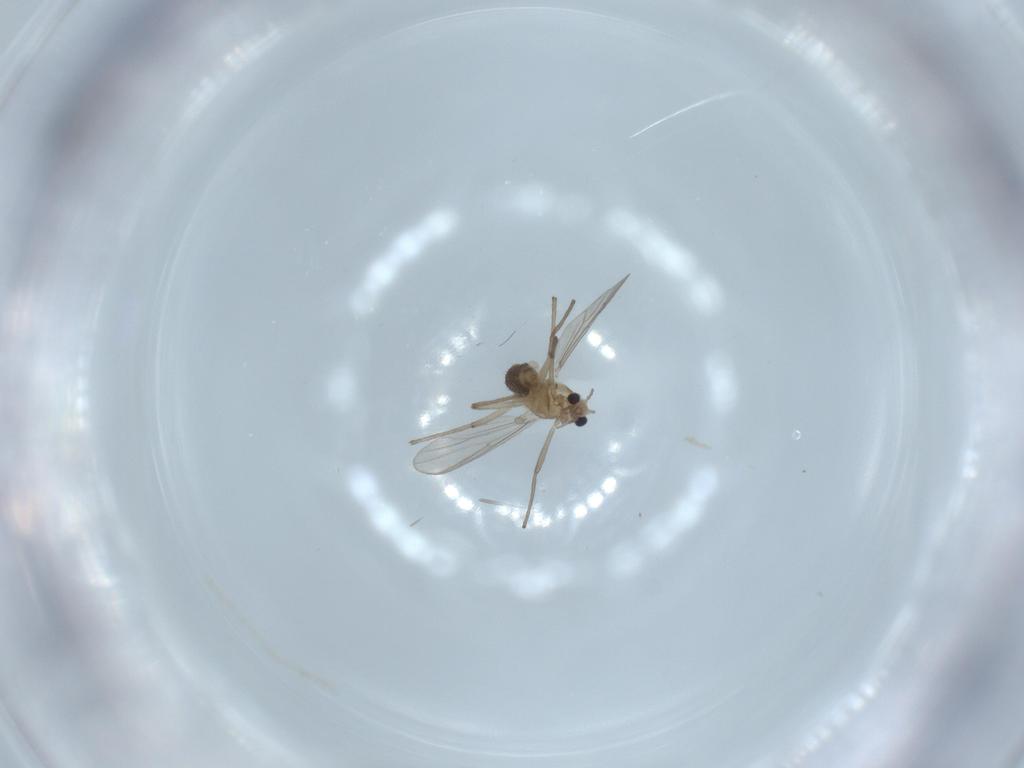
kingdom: Animalia
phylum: Arthropoda
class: Insecta
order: Diptera
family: Sciaridae
